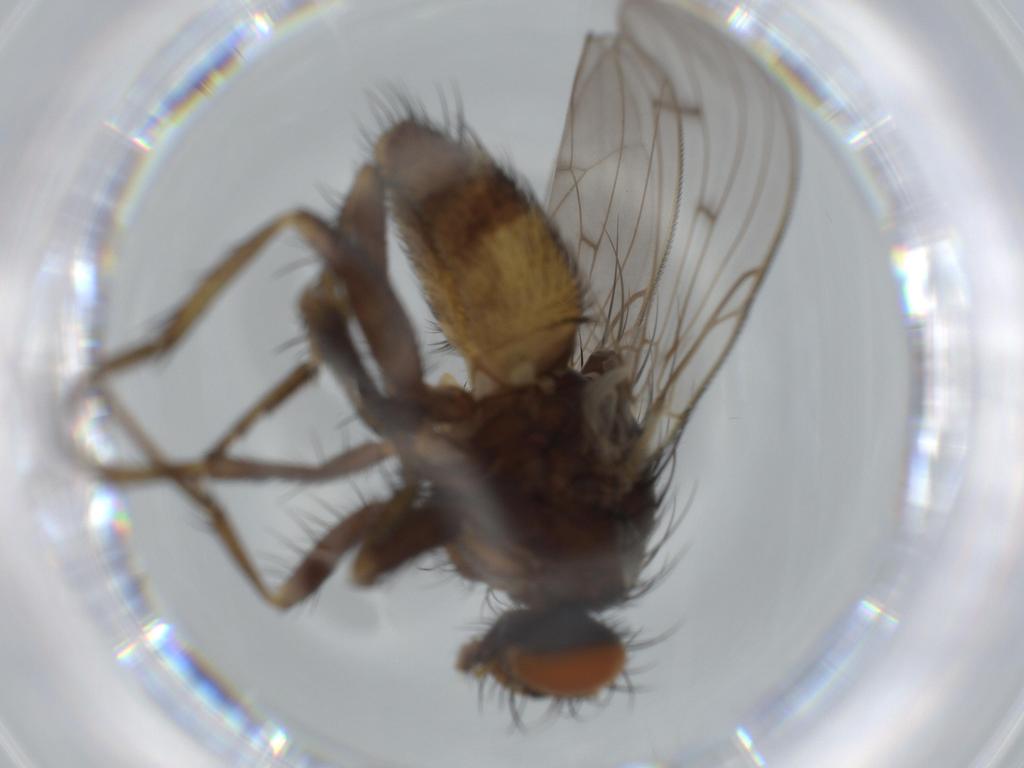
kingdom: Animalia
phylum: Arthropoda
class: Insecta
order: Diptera
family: Muscidae
